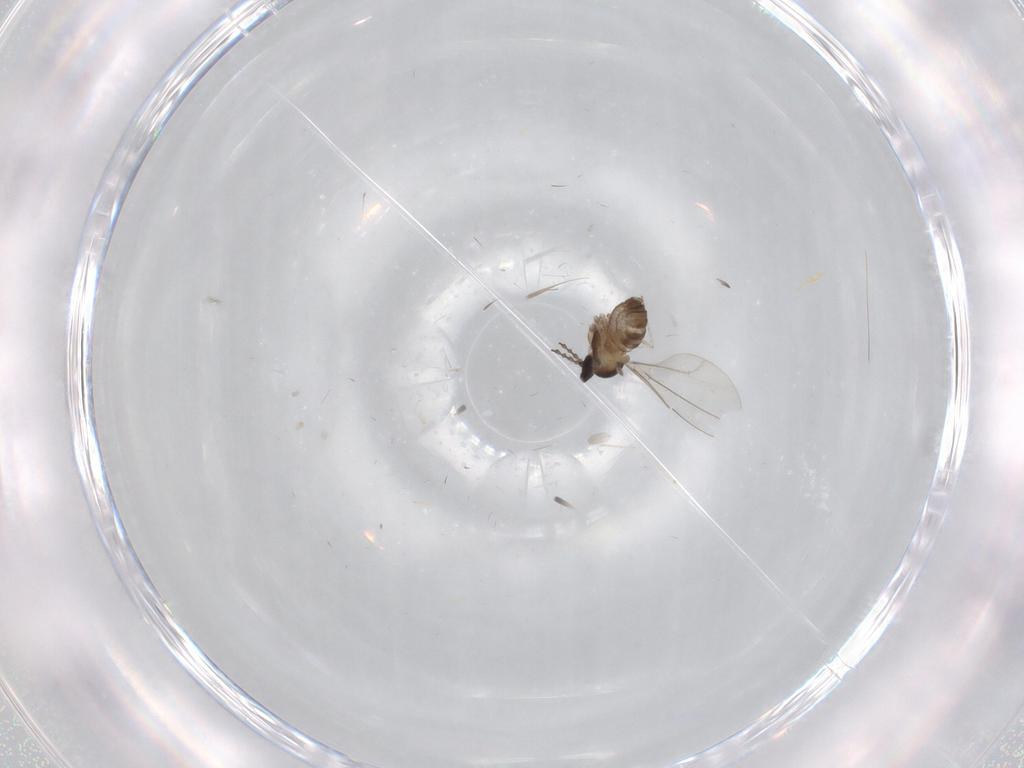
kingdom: Animalia
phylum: Arthropoda
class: Insecta
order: Diptera
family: Cecidomyiidae
